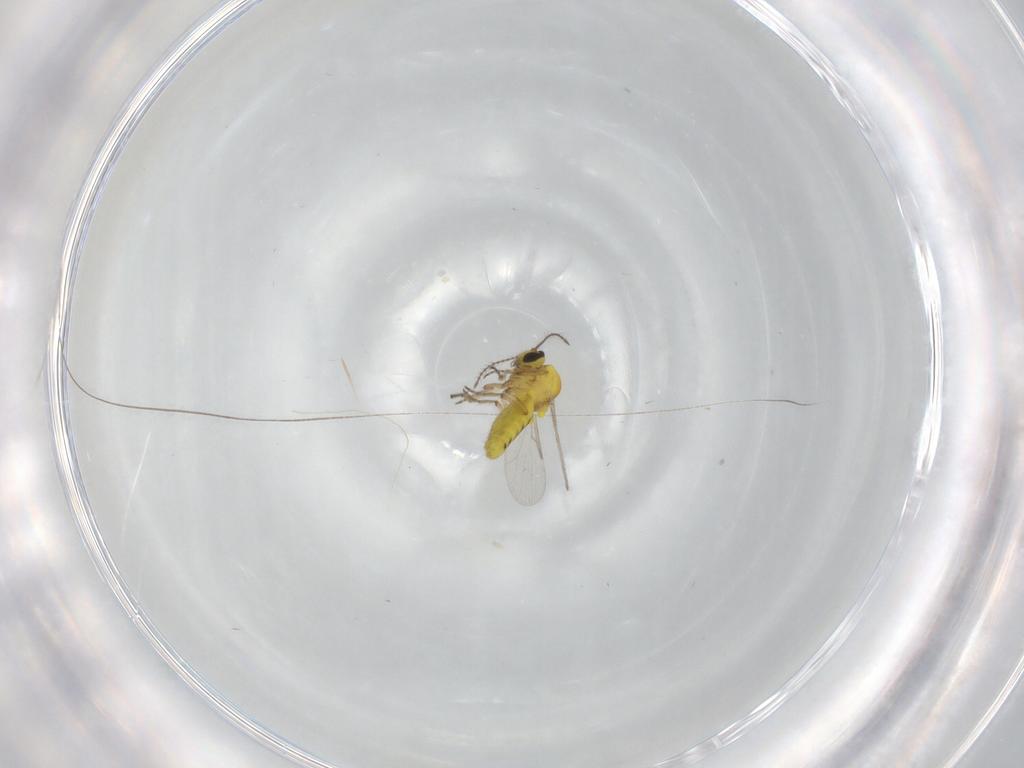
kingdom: Animalia
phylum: Arthropoda
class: Insecta
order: Diptera
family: Ceratopogonidae
